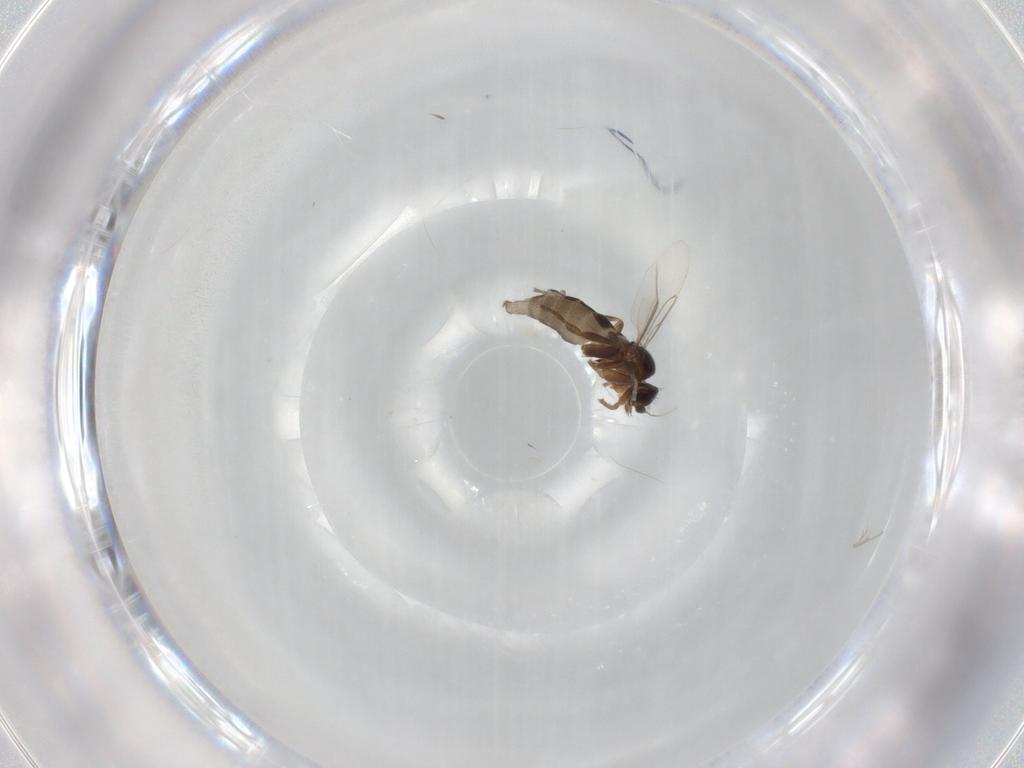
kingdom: Animalia
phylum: Arthropoda
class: Insecta
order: Diptera
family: Phoridae
